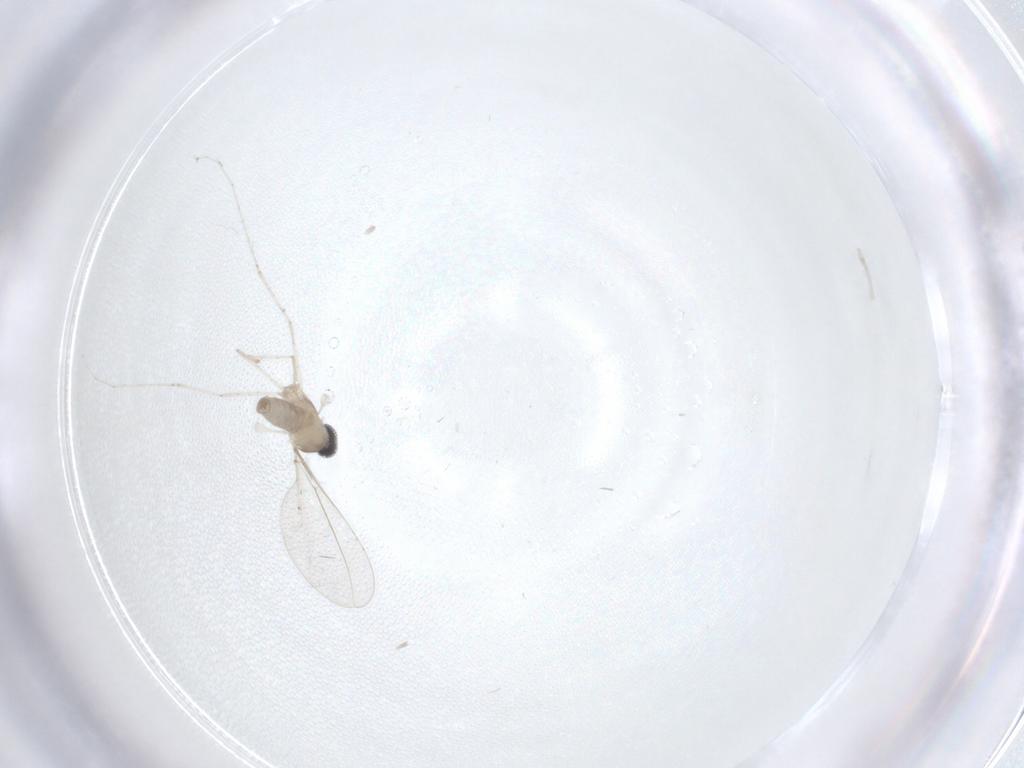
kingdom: Animalia
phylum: Arthropoda
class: Insecta
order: Diptera
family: Cecidomyiidae
